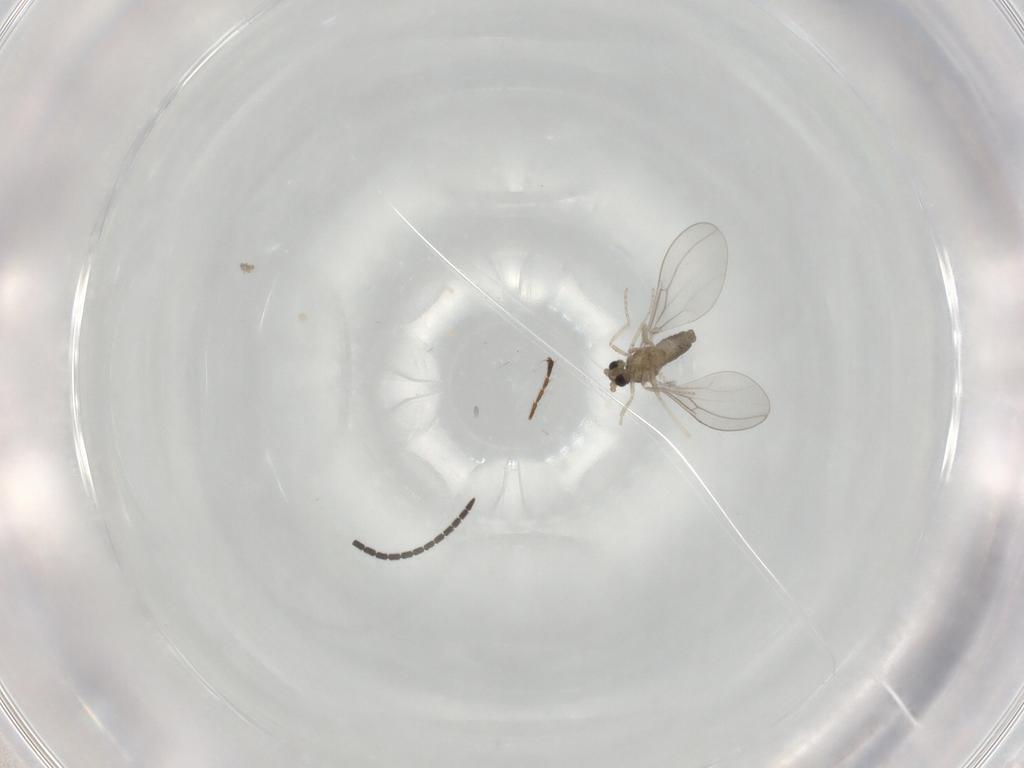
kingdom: Animalia
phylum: Arthropoda
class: Insecta
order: Diptera
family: Cecidomyiidae
